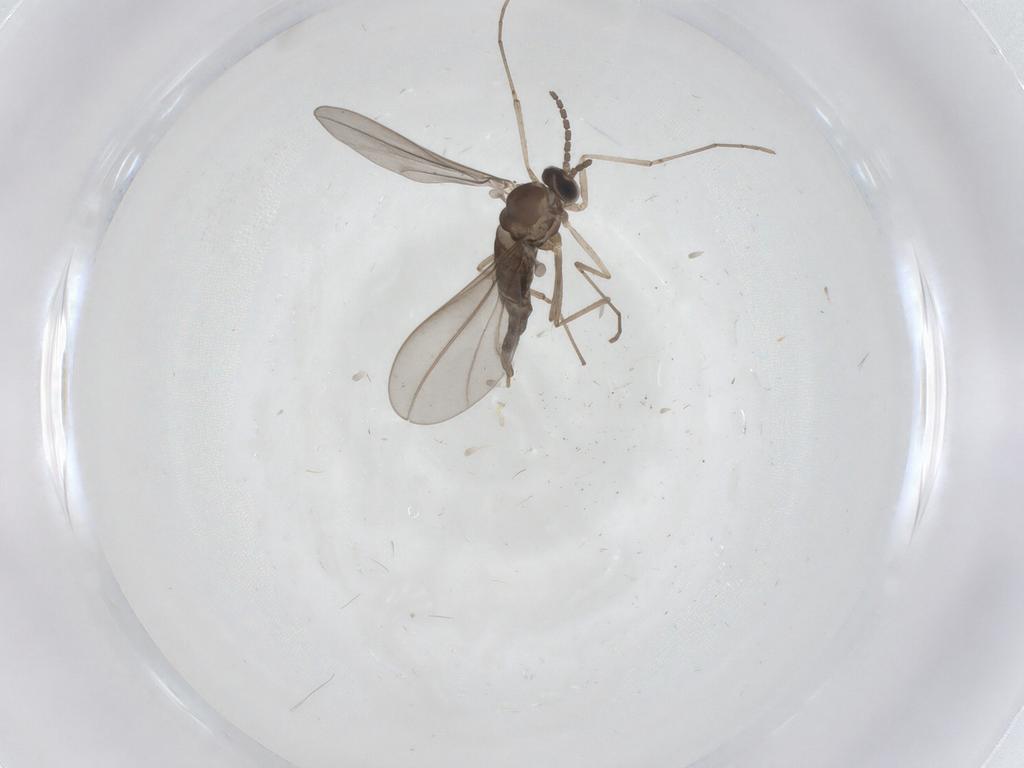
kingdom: Animalia
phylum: Arthropoda
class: Insecta
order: Diptera
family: Cecidomyiidae
